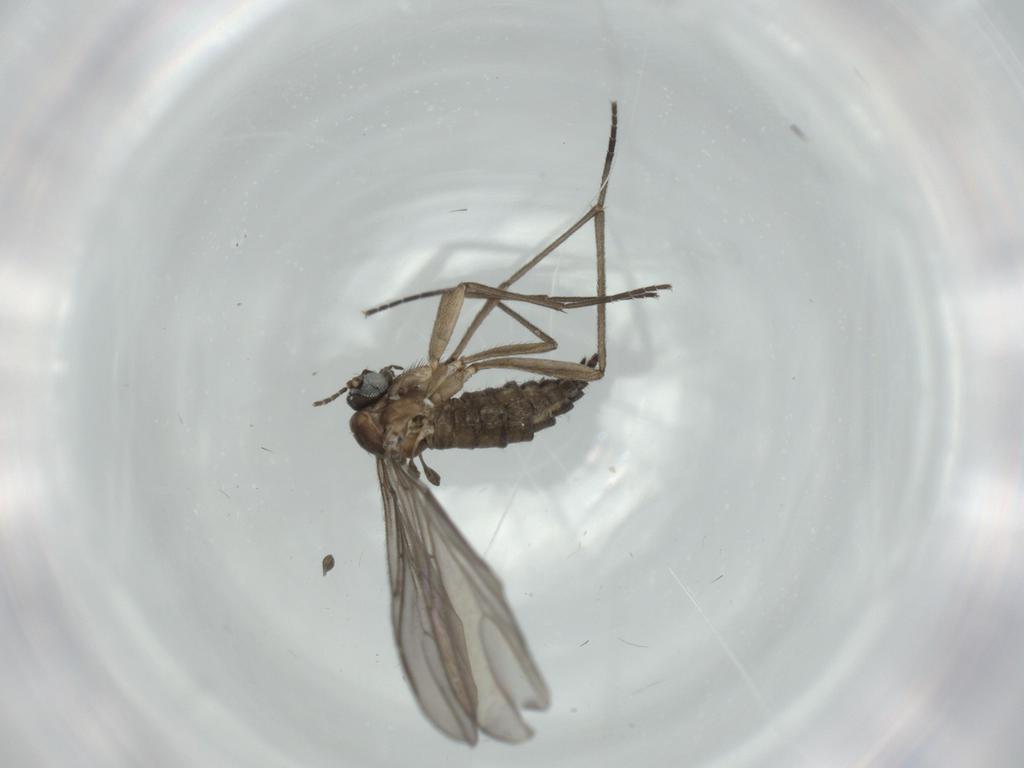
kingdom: Animalia
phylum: Arthropoda
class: Insecta
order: Diptera
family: Sciaridae
